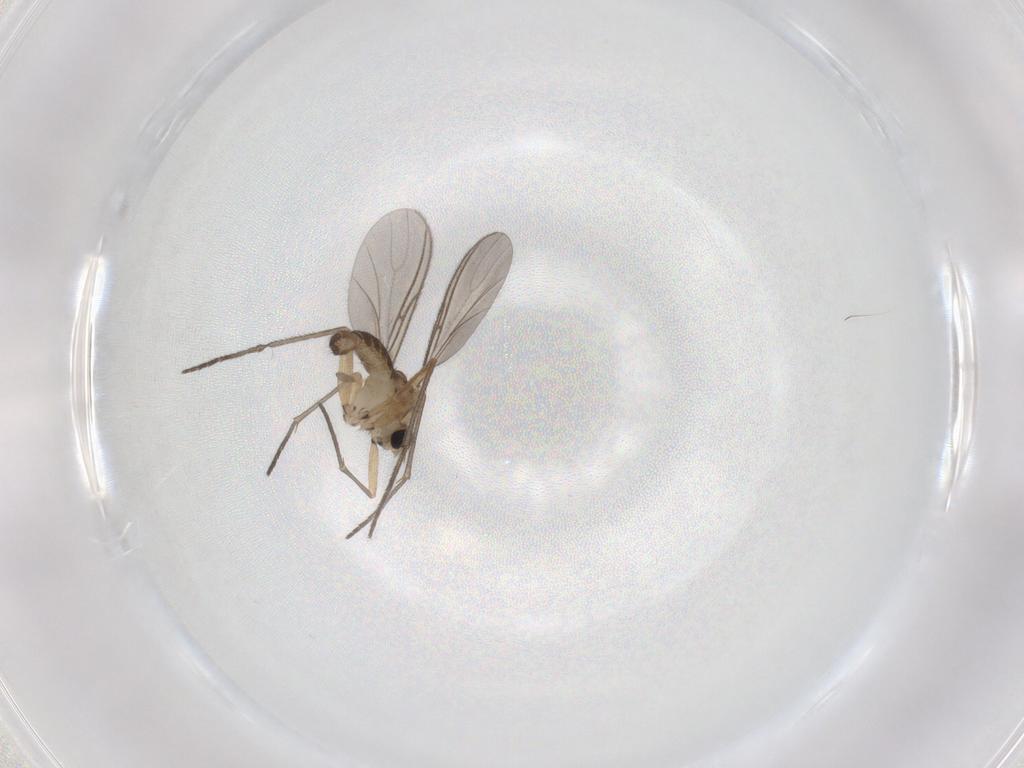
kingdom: Animalia
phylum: Arthropoda
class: Insecta
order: Diptera
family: Sciaridae
